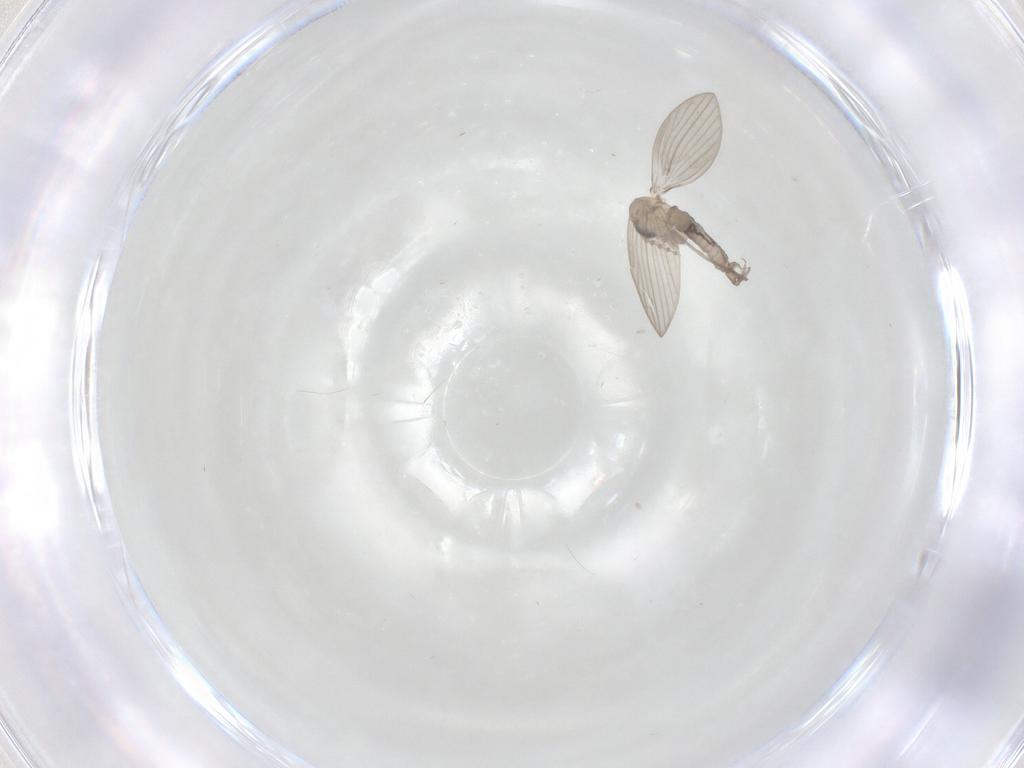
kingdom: Animalia
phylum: Arthropoda
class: Insecta
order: Diptera
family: Psychodidae
